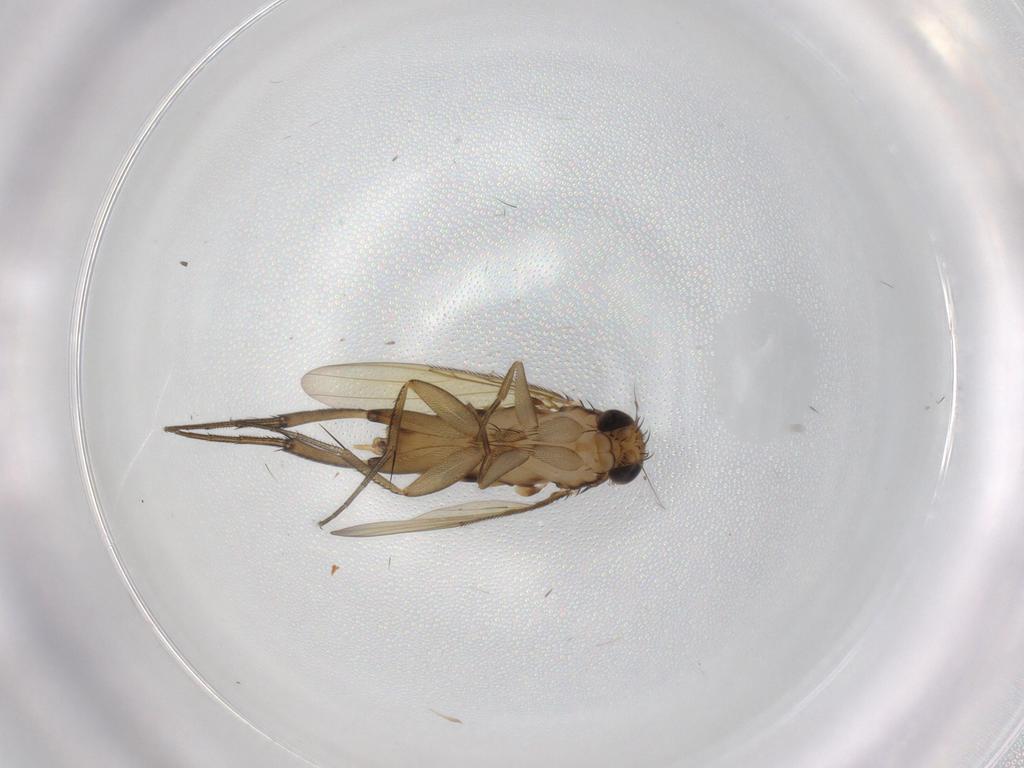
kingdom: Animalia
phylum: Arthropoda
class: Insecta
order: Diptera
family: Phoridae
